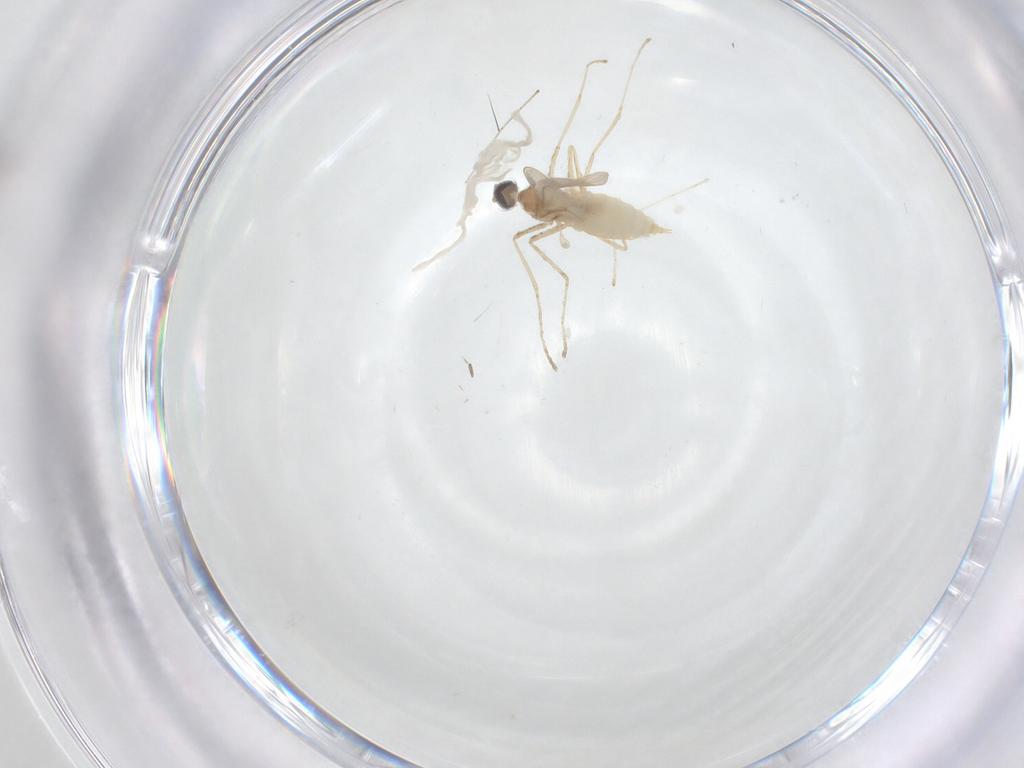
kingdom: Animalia
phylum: Arthropoda
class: Insecta
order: Diptera
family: Cecidomyiidae
